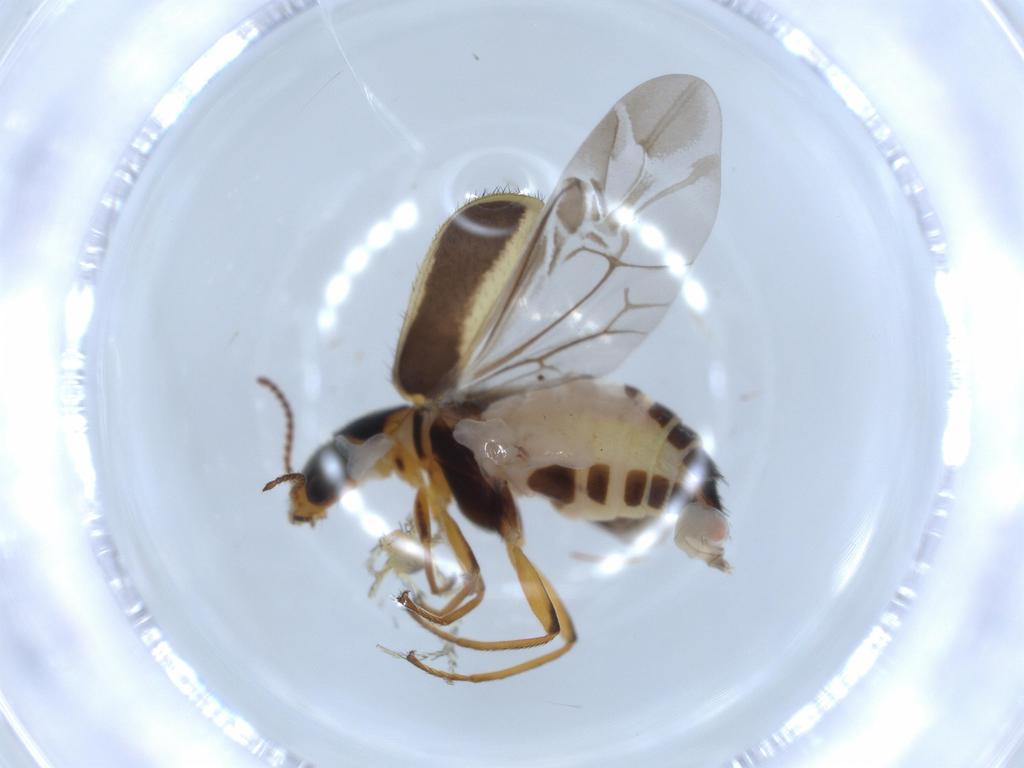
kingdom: Animalia
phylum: Arthropoda
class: Insecta
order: Coleoptera
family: Melyridae
